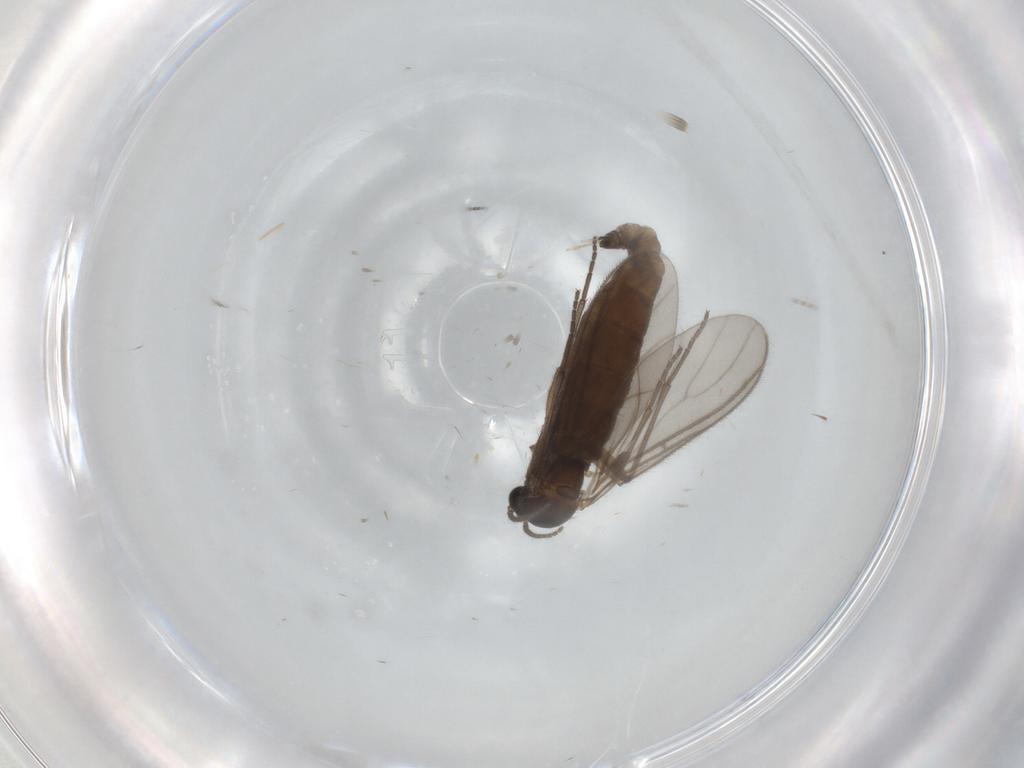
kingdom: Animalia
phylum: Arthropoda
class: Insecta
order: Diptera
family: Sciaridae
